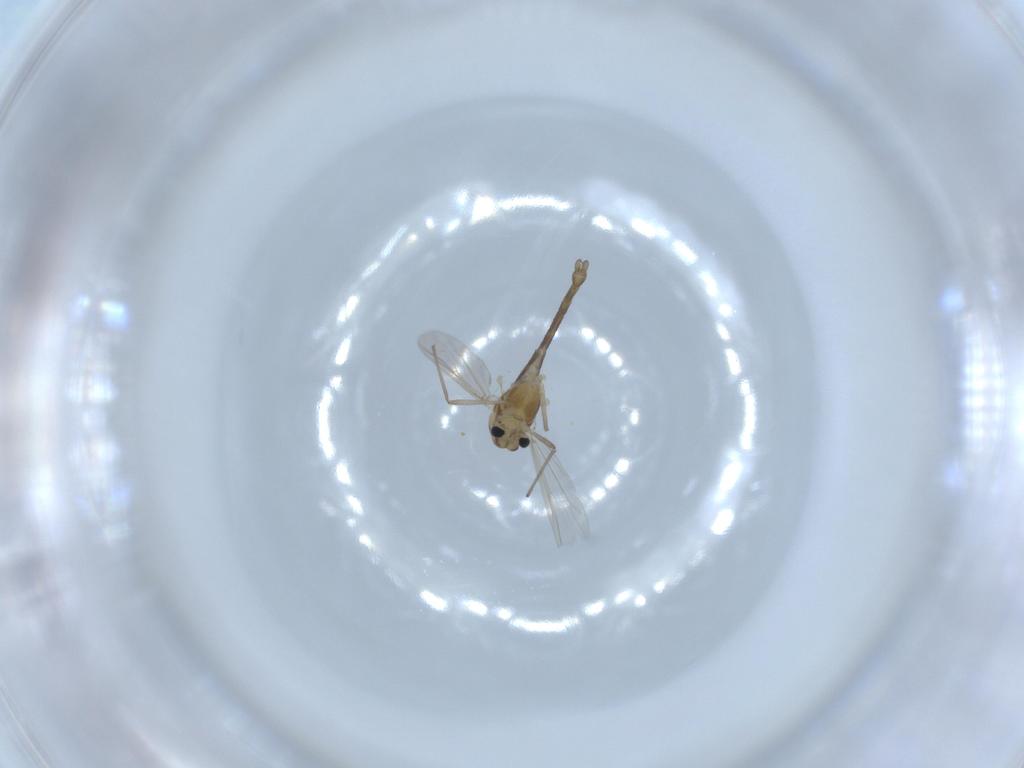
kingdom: Animalia
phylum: Arthropoda
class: Insecta
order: Diptera
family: Chironomidae
